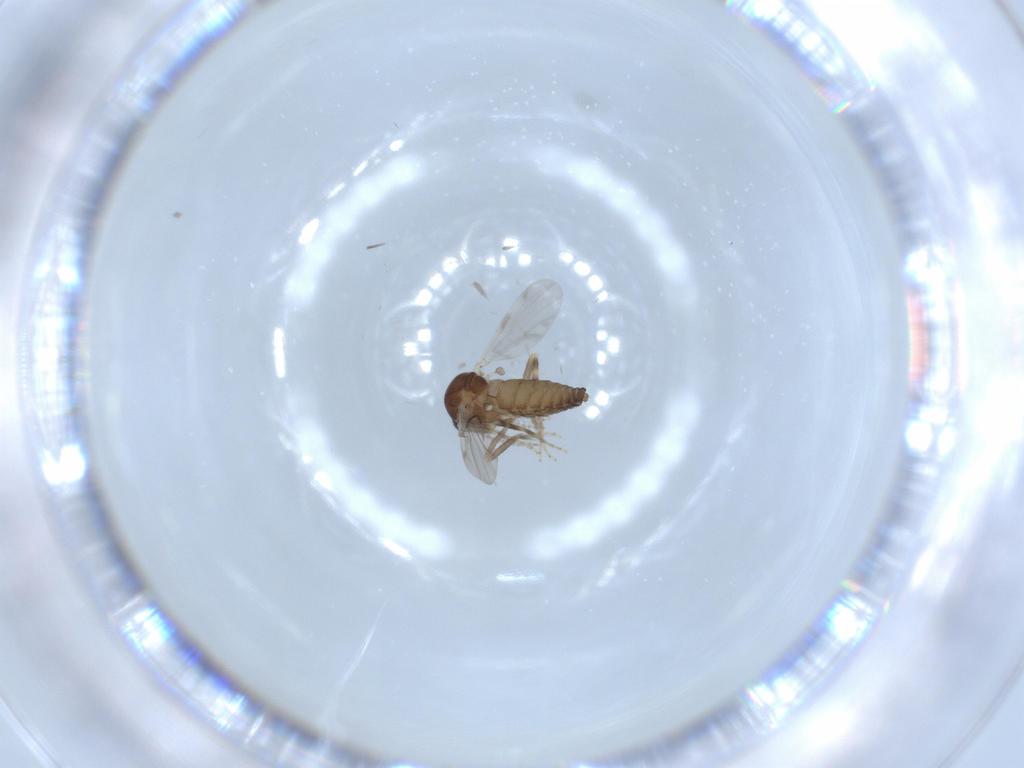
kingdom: Animalia
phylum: Arthropoda
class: Insecta
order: Diptera
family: Ceratopogonidae
